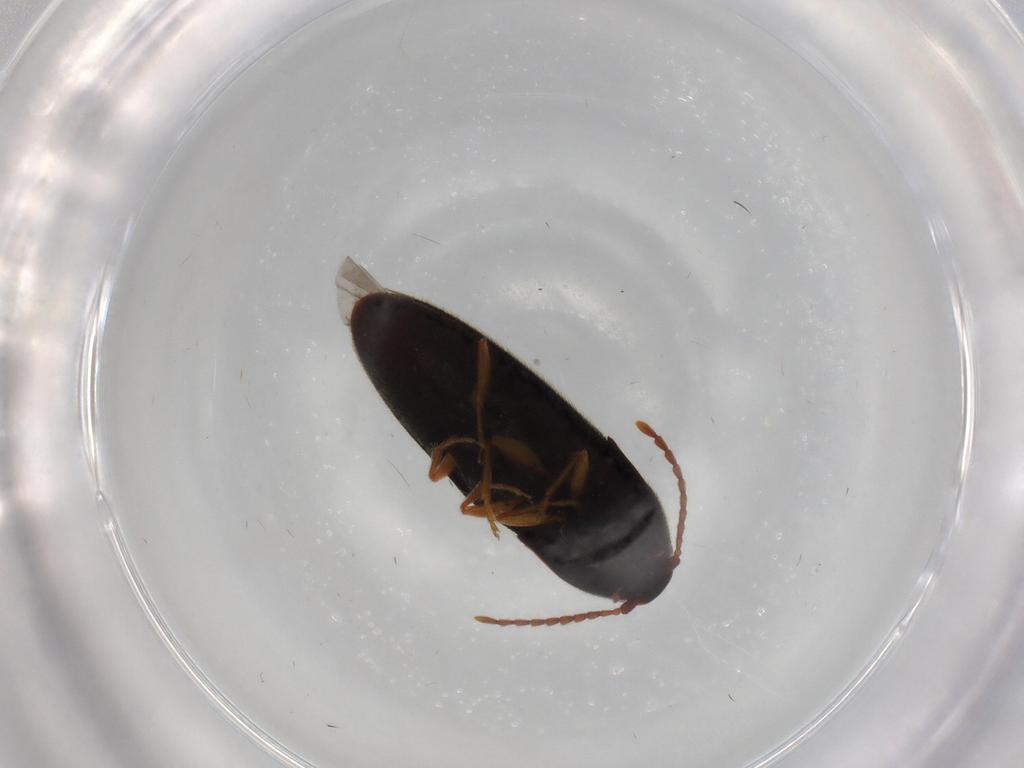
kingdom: Animalia
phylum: Arthropoda
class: Insecta
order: Coleoptera
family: Elateridae
